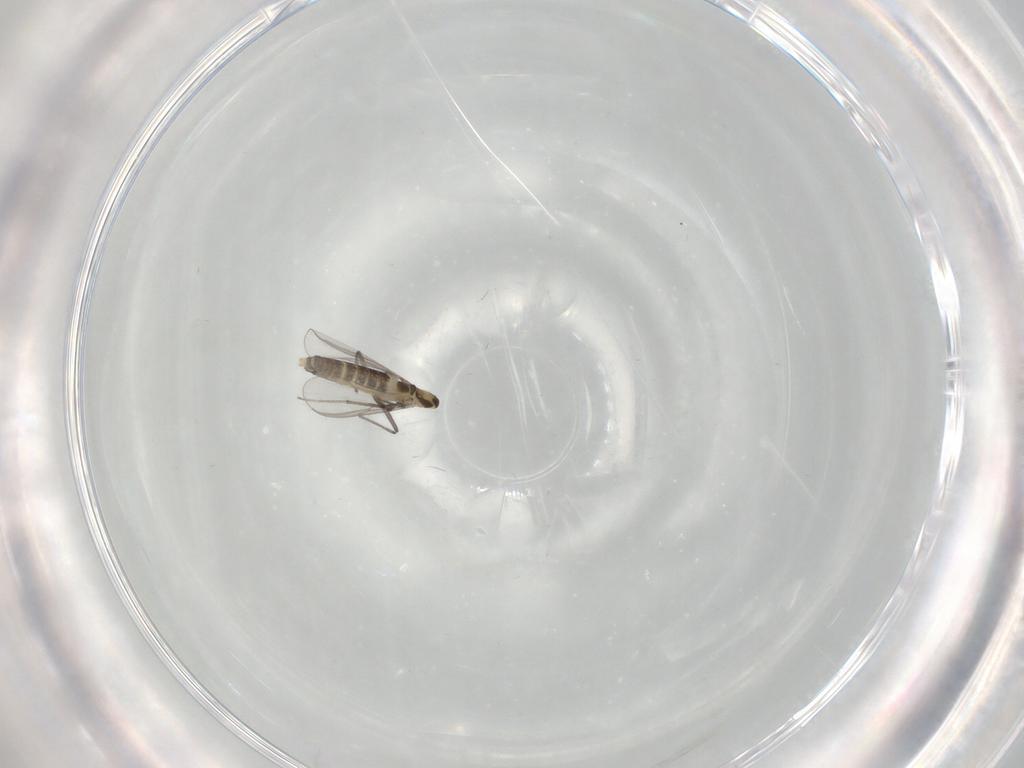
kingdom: Animalia
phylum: Arthropoda
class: Insecta
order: Diptera
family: Chironomidae
